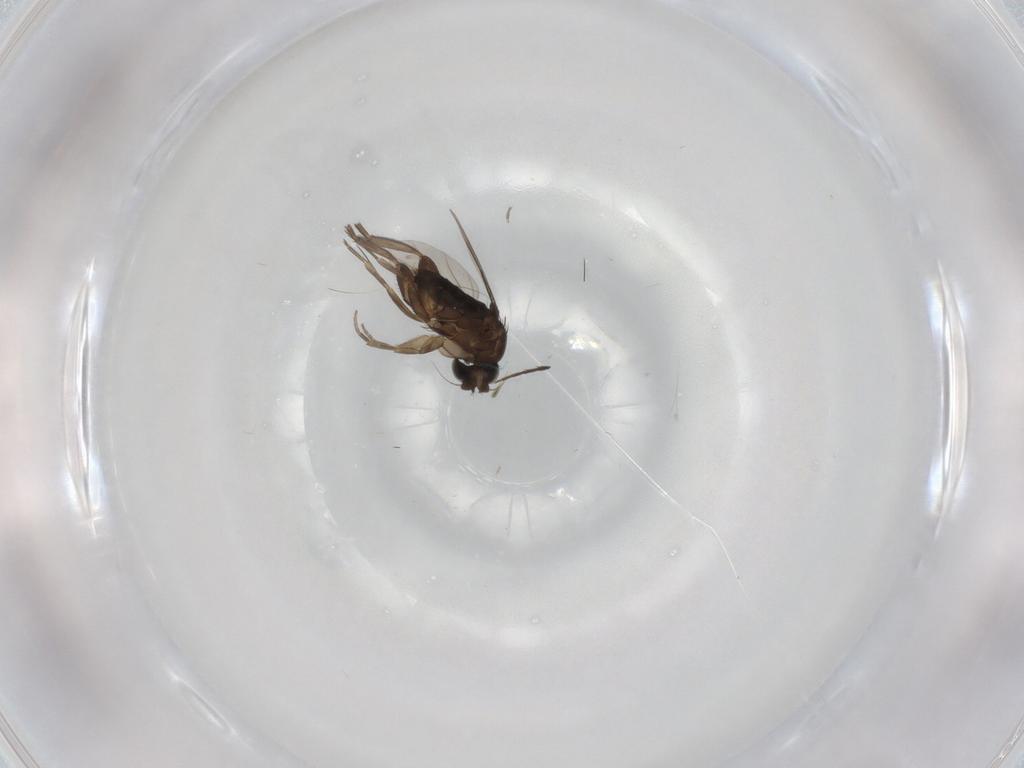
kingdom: Animalia
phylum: Arthropoda
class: Insecta
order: Diptera
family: Phoridae
